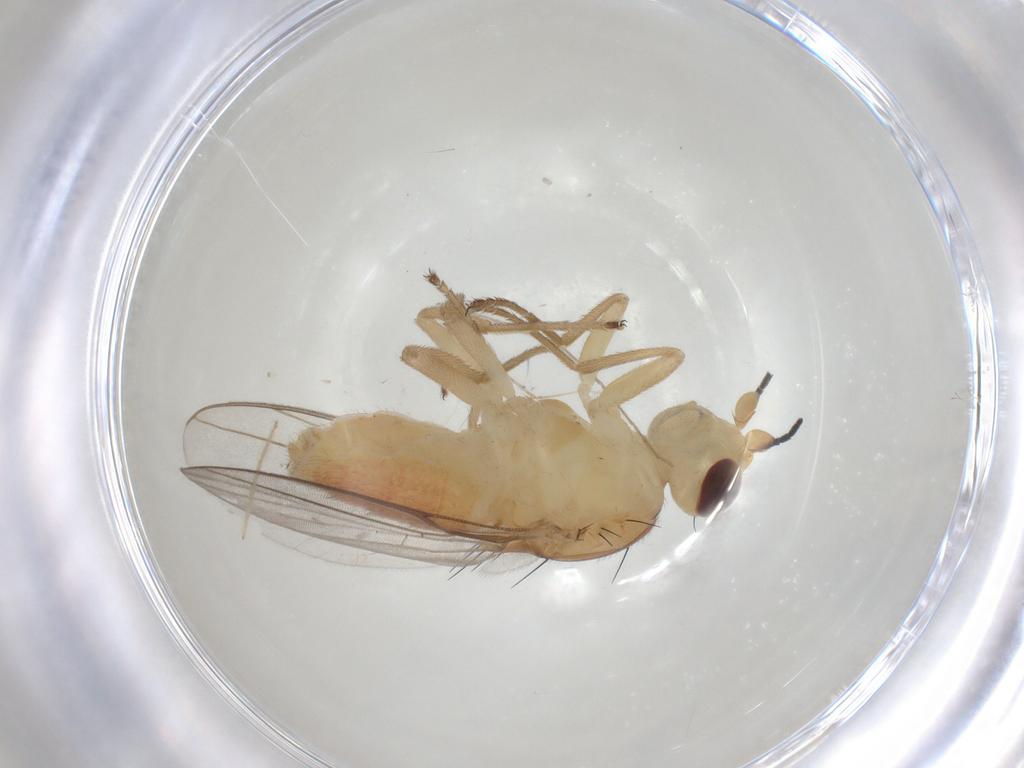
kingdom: Animalia
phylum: Arthropoda
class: Insecta
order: Diptera
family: Chloropidae
